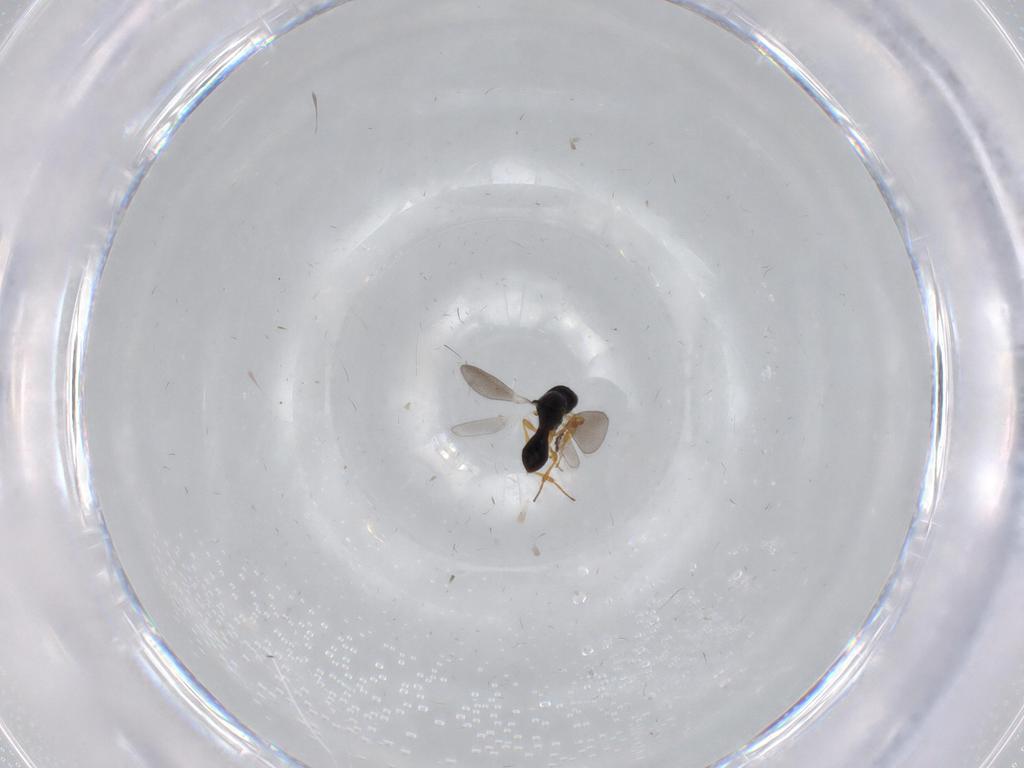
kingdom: Animalia
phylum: Arthropoda
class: Insecta
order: Hymenoptera
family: Platygastridae
